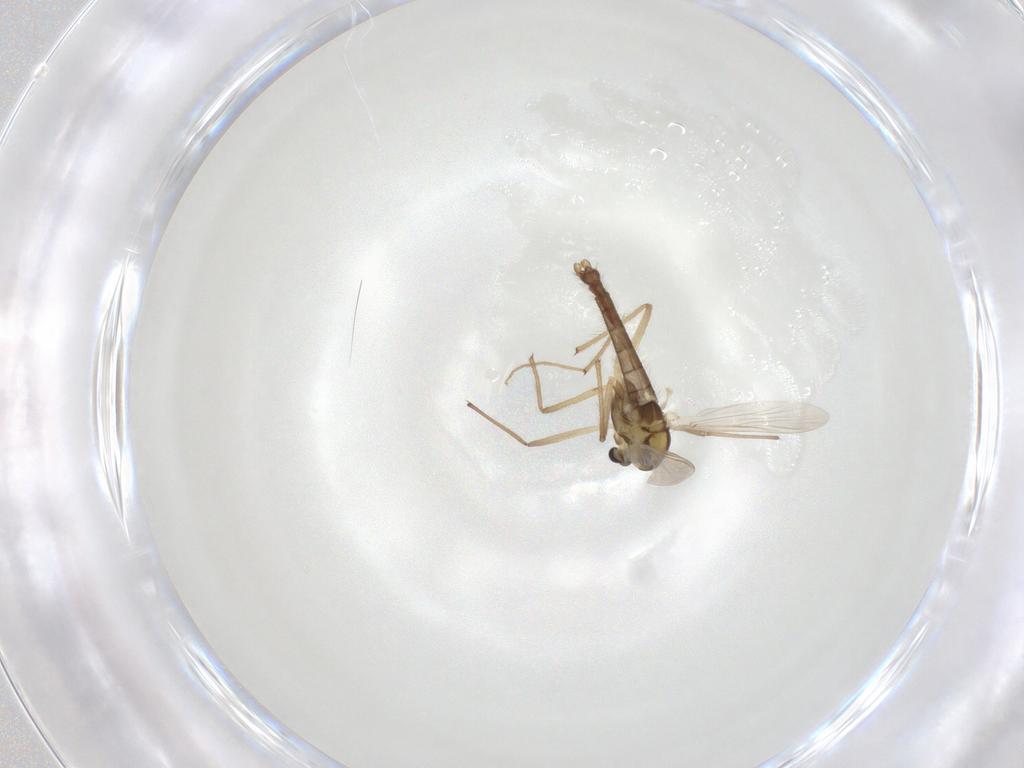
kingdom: Animalia
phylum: Arthropoda
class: Insecta
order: Diptera
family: Chironomidae
